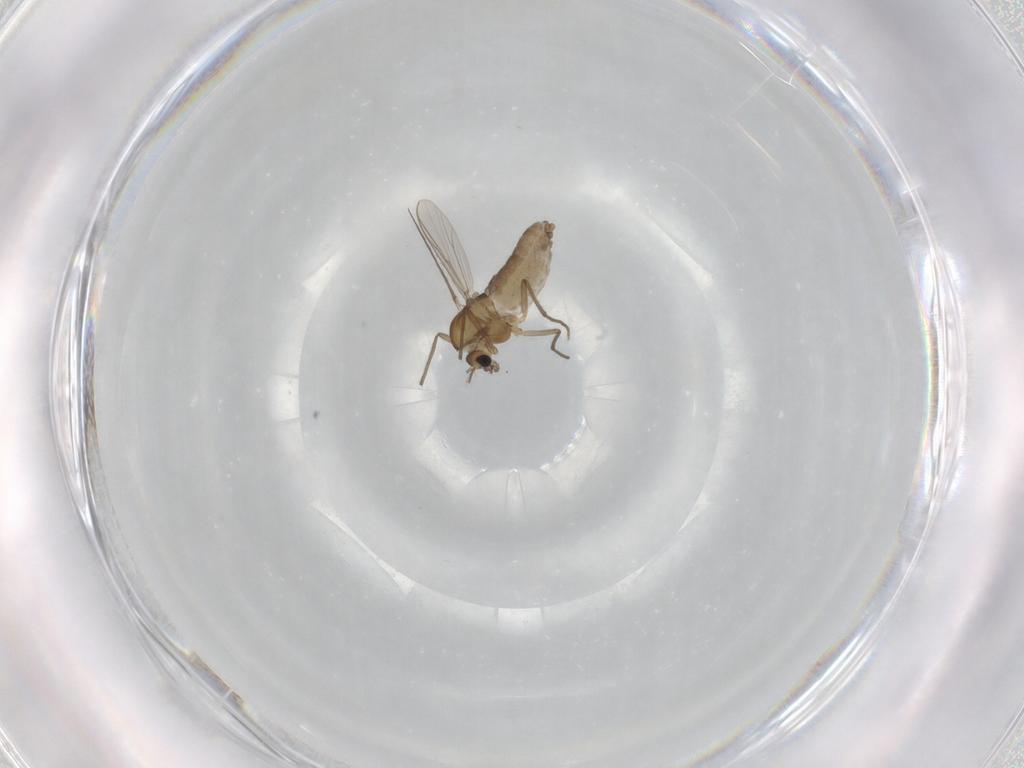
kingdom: Animalia
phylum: Arthropoda
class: Insecta
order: Diptera
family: Chironomidae
